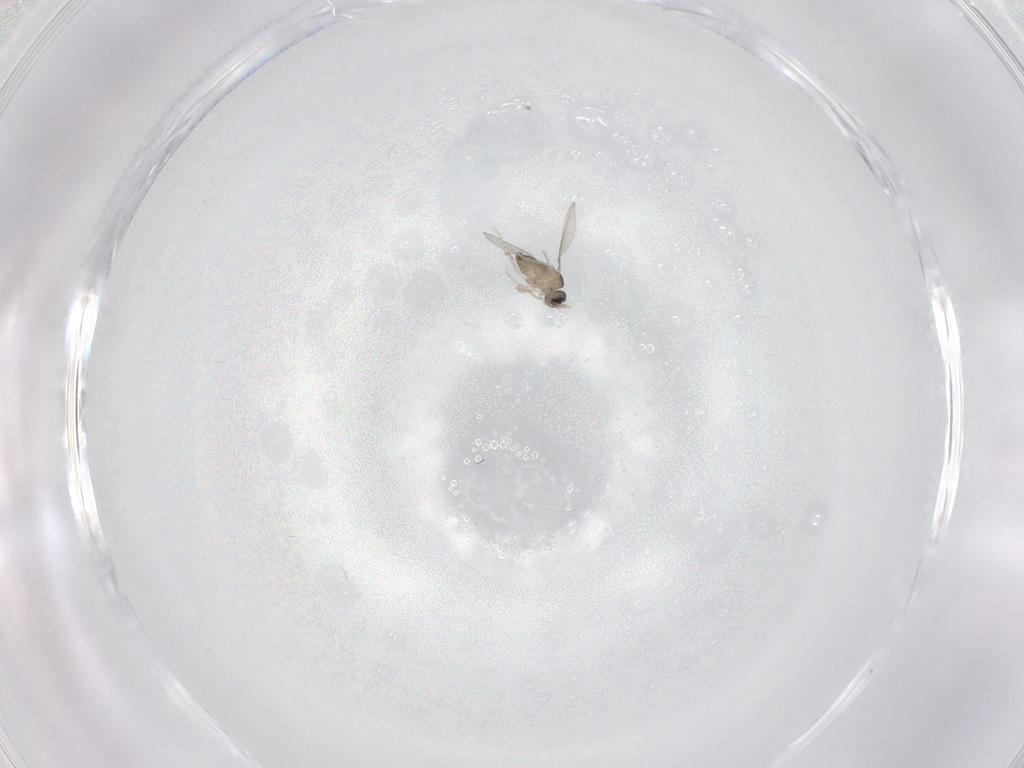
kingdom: Animalia
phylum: Arthropoda
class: Insecta
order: Diptera
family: Cecidomyiidae
